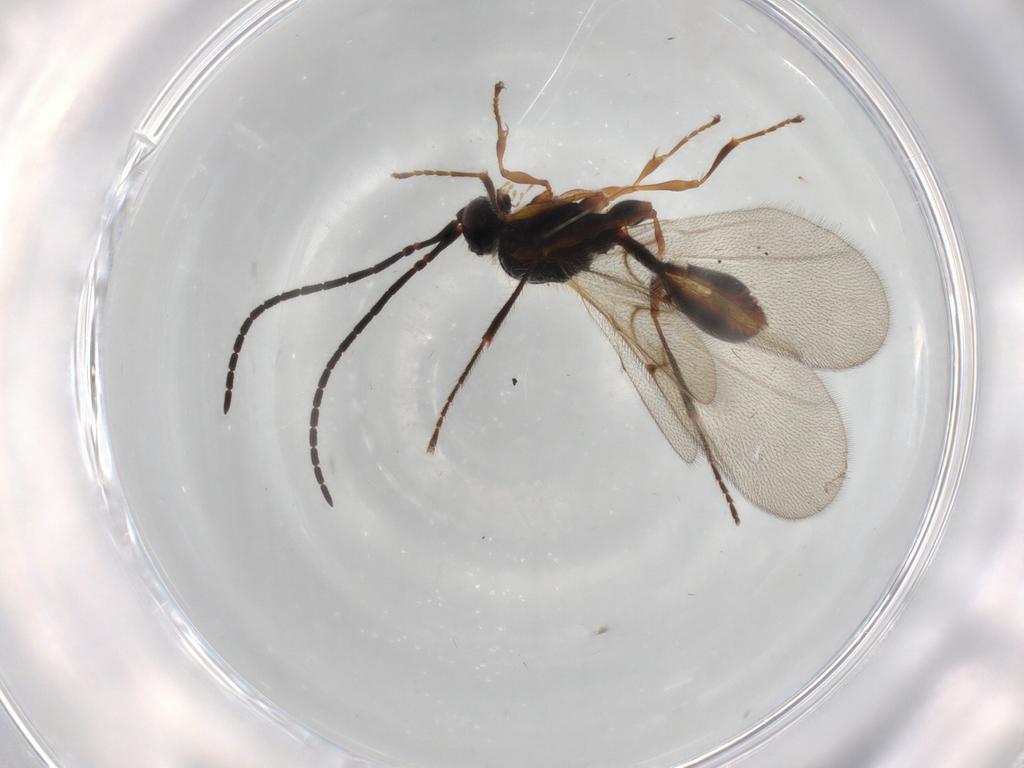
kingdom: Animalia
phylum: Arthropoda
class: Insecta
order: Hymenoptera
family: Diapriidae
